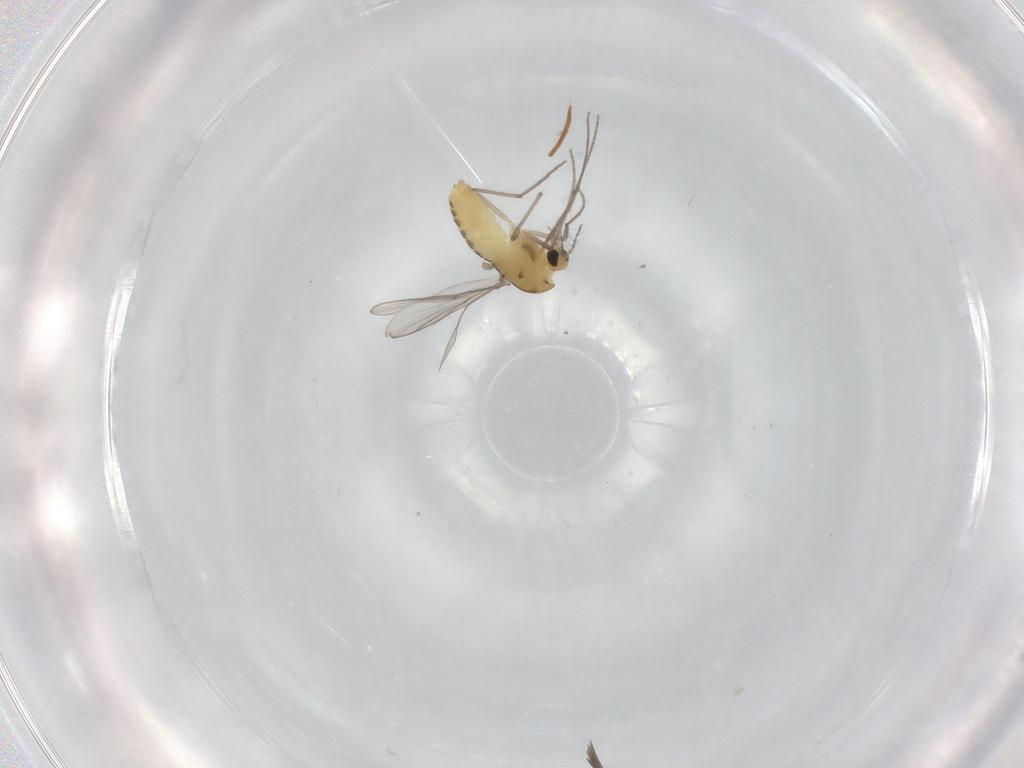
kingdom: Animalia
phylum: Arthropoda
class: Insecta
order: Diptera
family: Chironomidae
